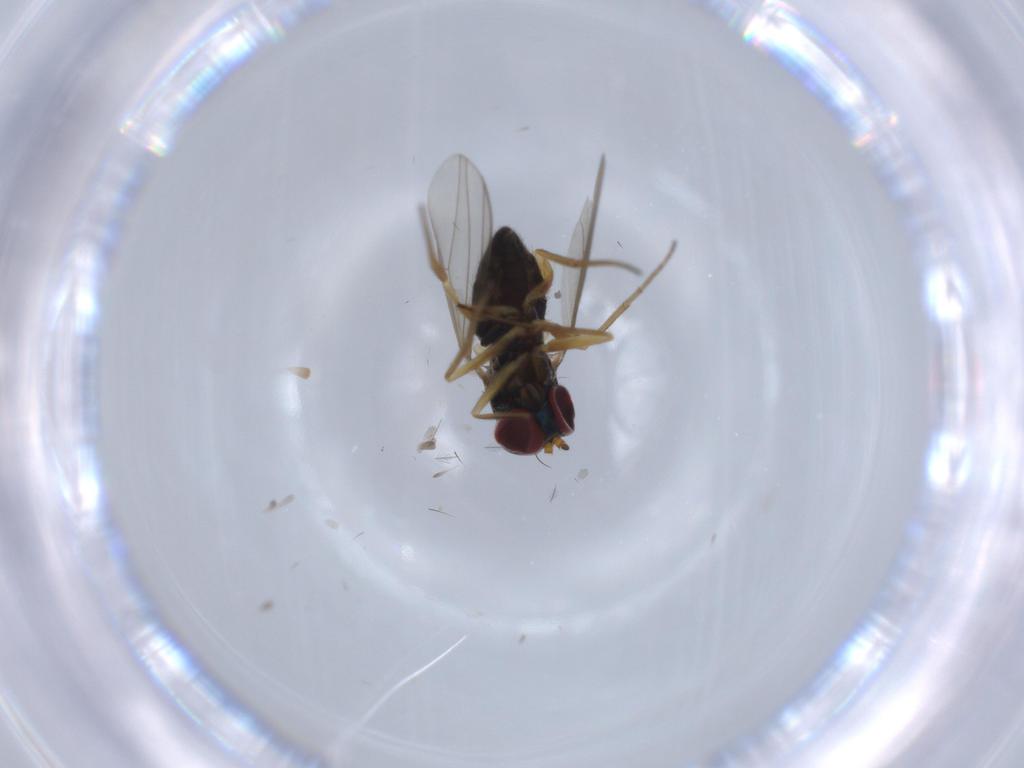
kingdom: Animalia
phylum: Arthropoda
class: Insecta
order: Diptera
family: Dolichopodidae
